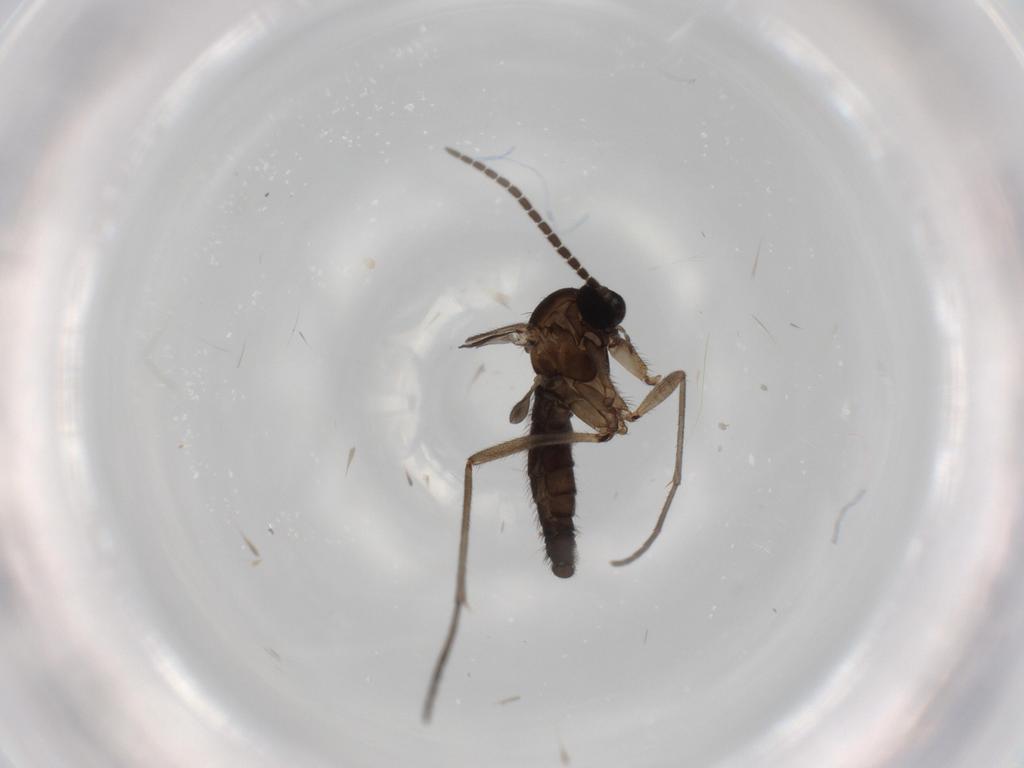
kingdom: Animalia
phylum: Arthropoda
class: Insecta
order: Diptera
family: Sciaridae
